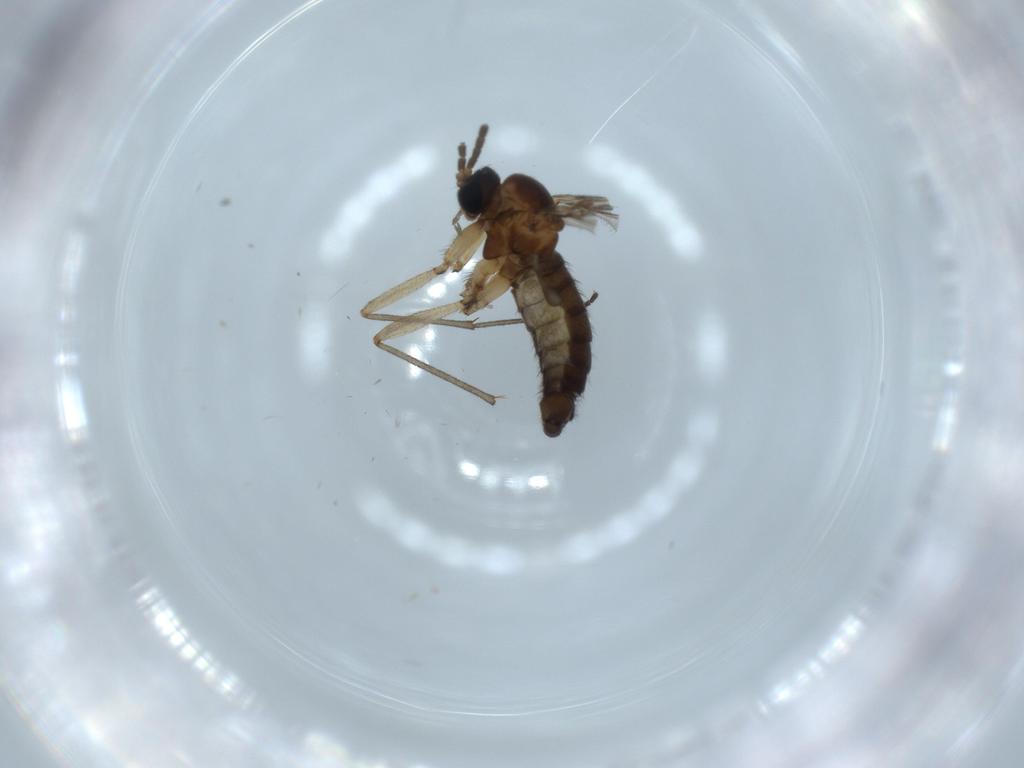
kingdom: Animalia
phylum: Arthropoda
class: Insecta
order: Diptera
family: Sciaridae
